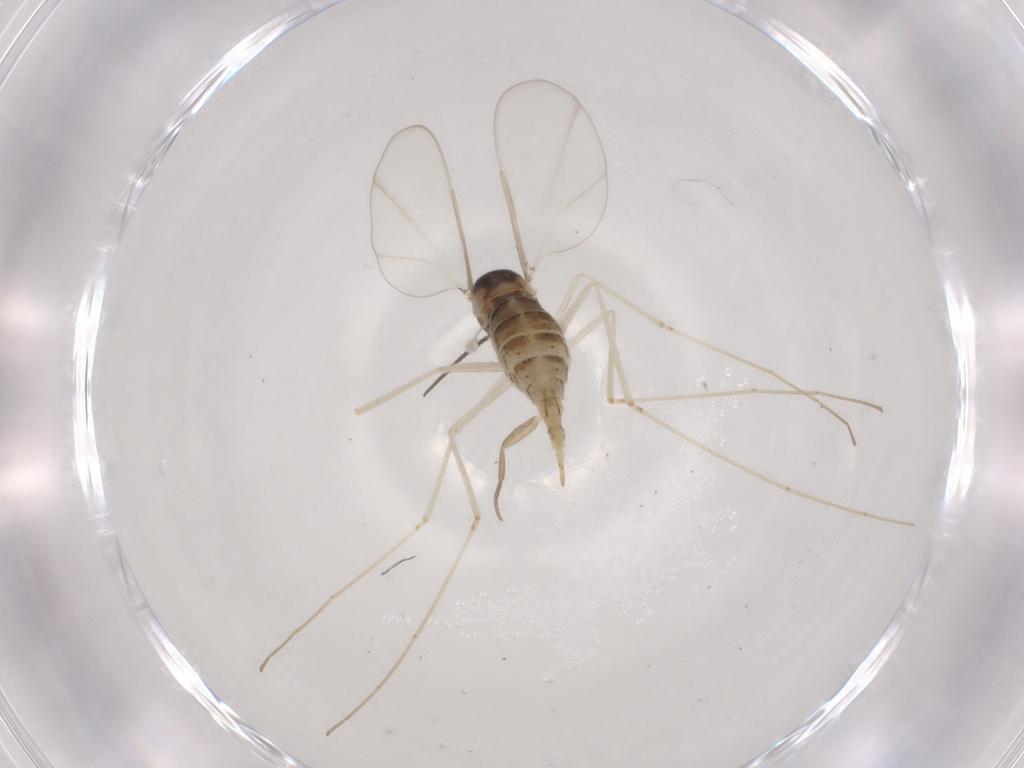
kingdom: Animalia
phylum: Arthropoda
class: Insecta
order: Diptera
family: Cecidomyiidae
